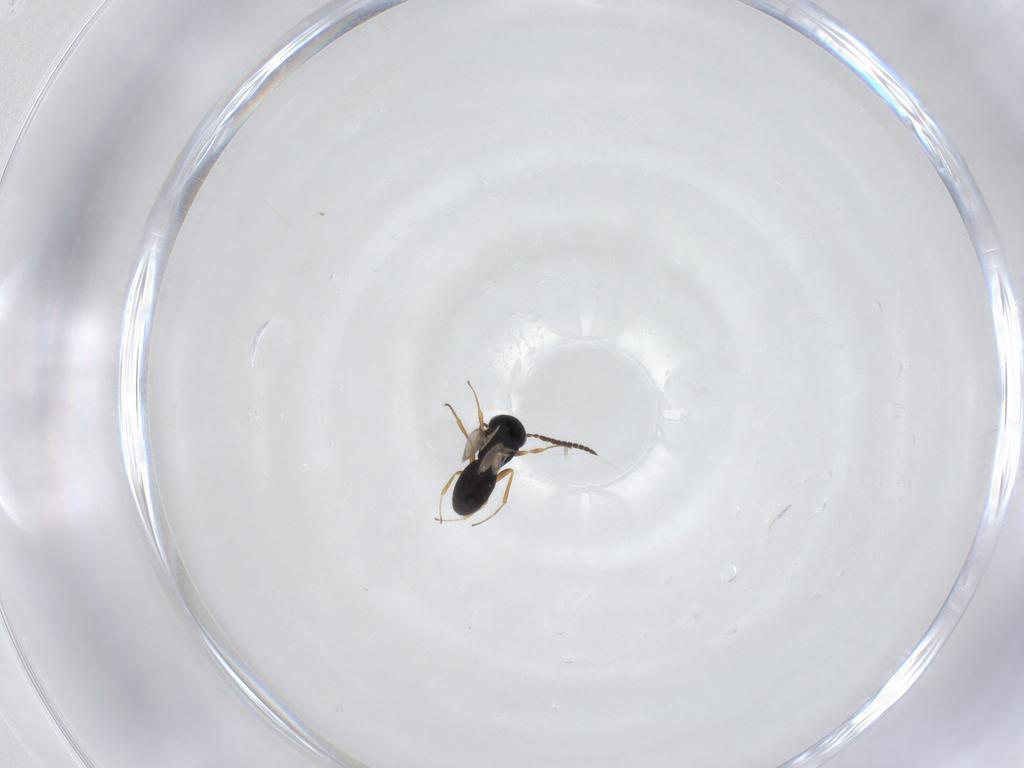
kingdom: Animalia
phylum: Arthropoda
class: Insecta
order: Hymenoptera
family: Scelionidae
